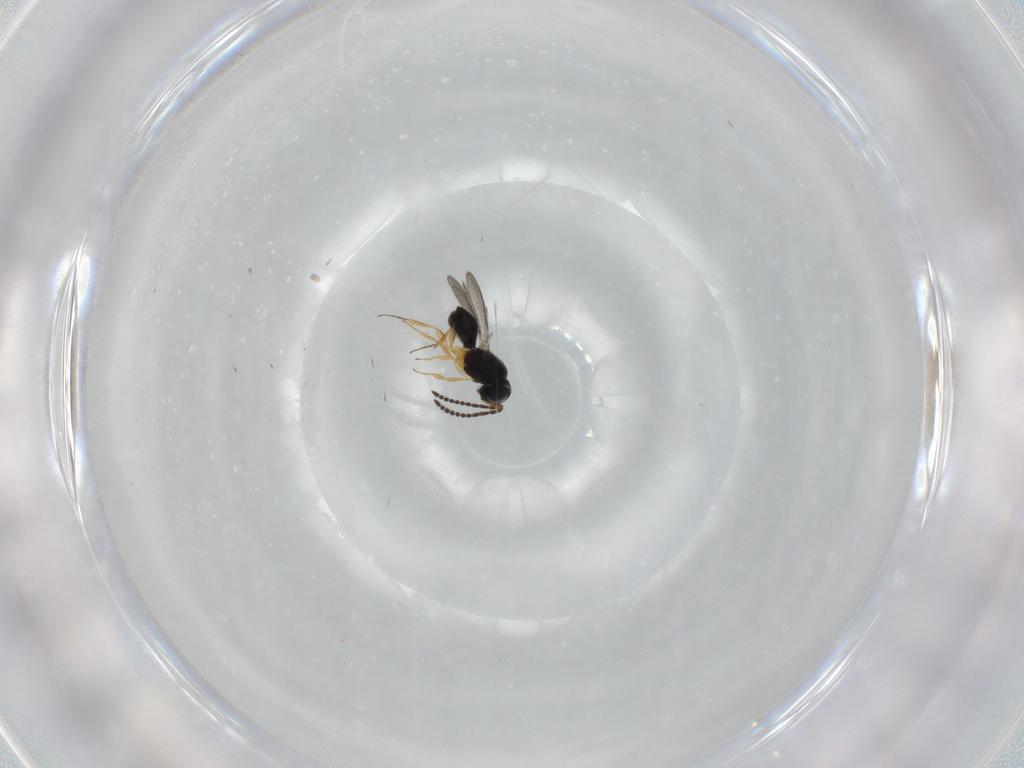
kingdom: Animalia
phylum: Arthropoda
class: Insecta
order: Hymenoptera
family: Scelionidae
